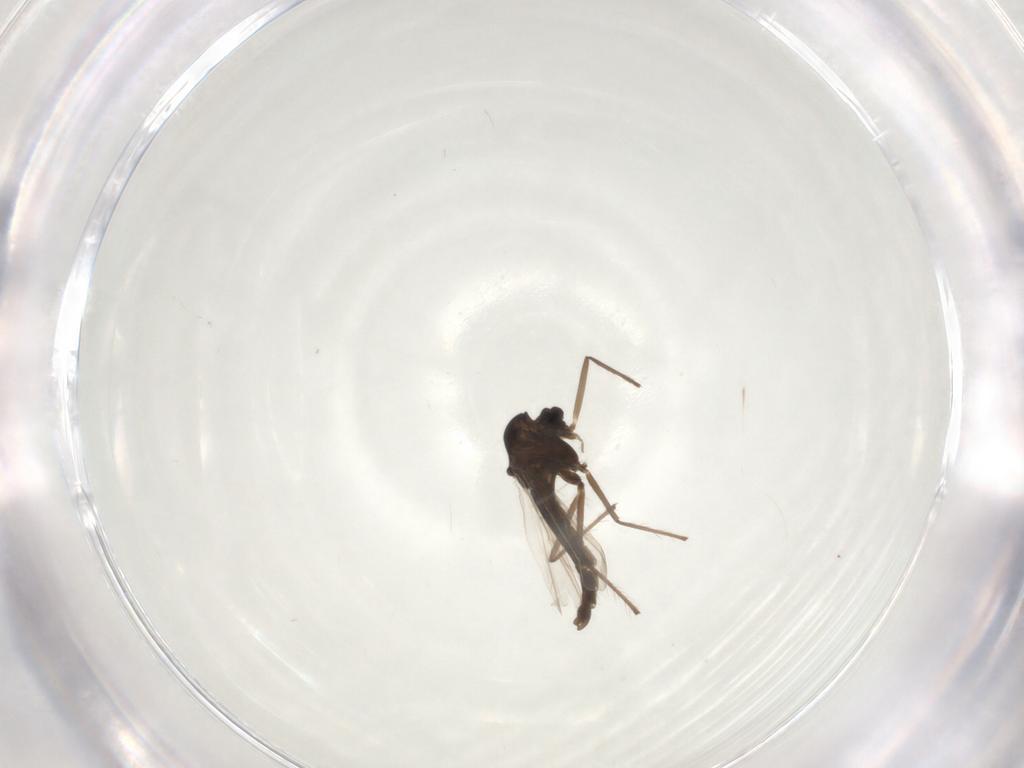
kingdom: Animalia
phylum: Arthropoda
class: Insecta
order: Diptera
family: Chironomidae
